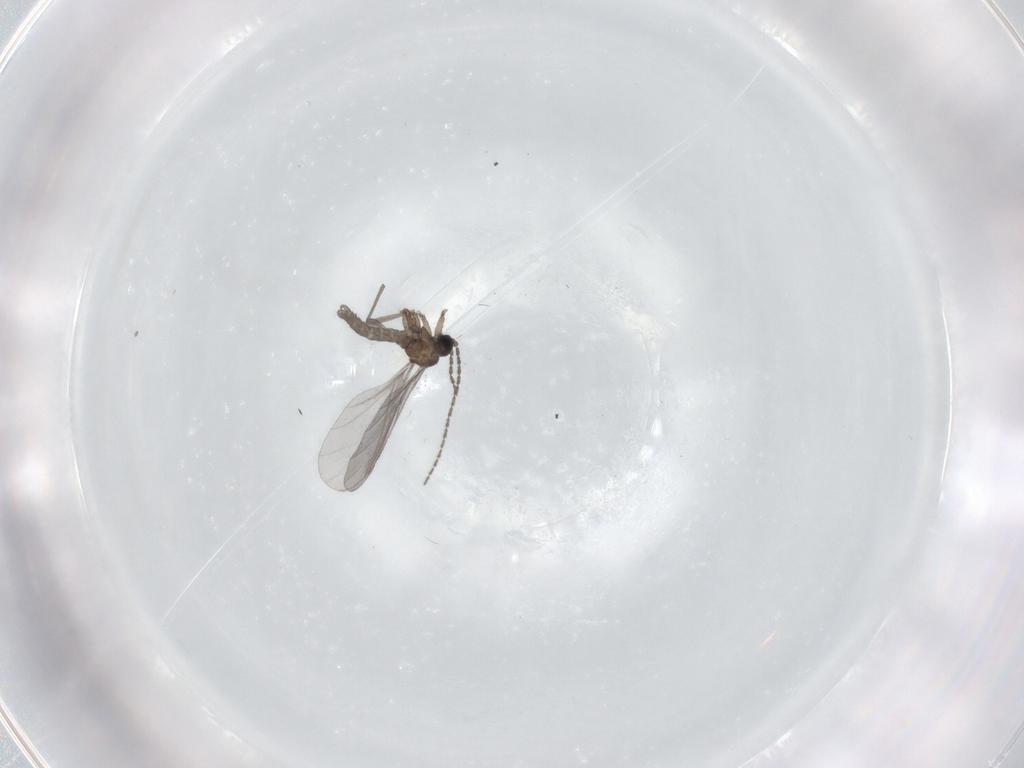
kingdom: Animalia
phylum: Arthropoda
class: Insecta
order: Diptera
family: Sciaridae
